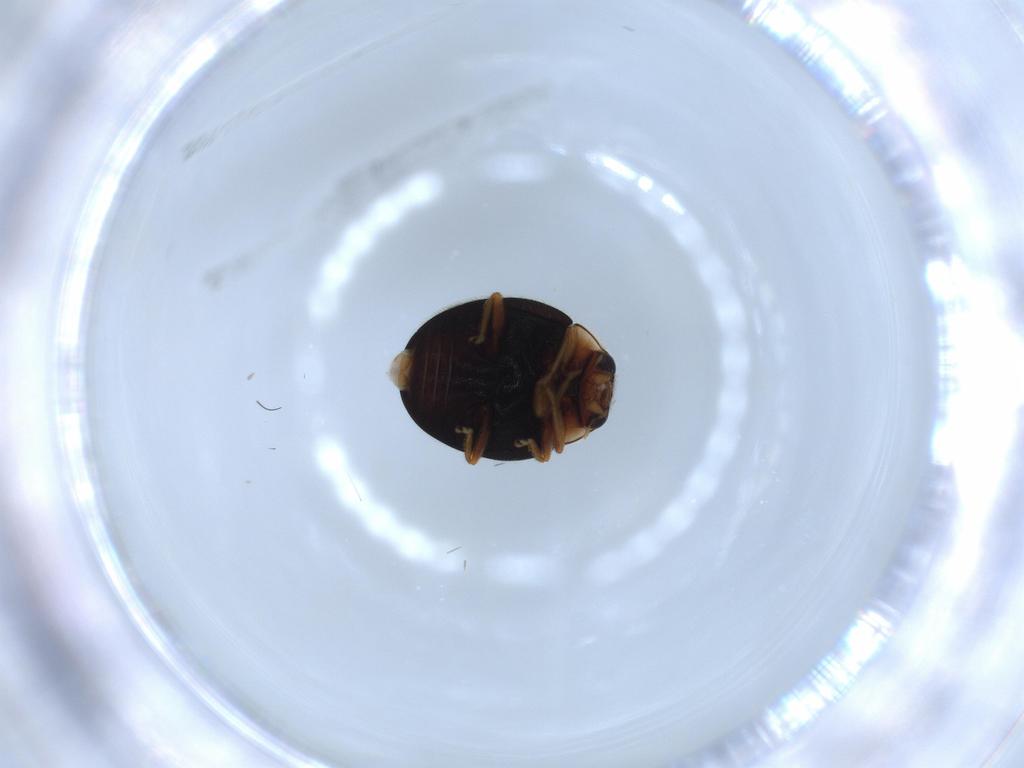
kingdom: Animalia
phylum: Arthropoda
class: Insecta
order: Coleoptera
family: Coccinellidae
